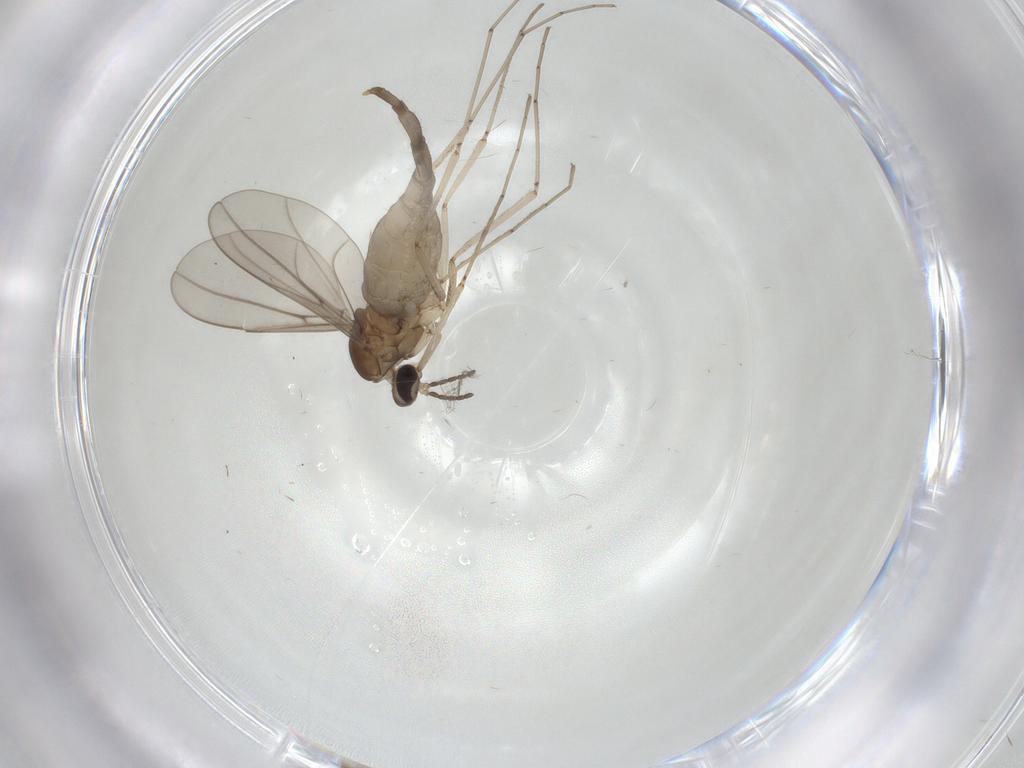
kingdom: Animalia
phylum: Arthropoda
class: Insecta
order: Diptera
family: Cecidomyiidae
